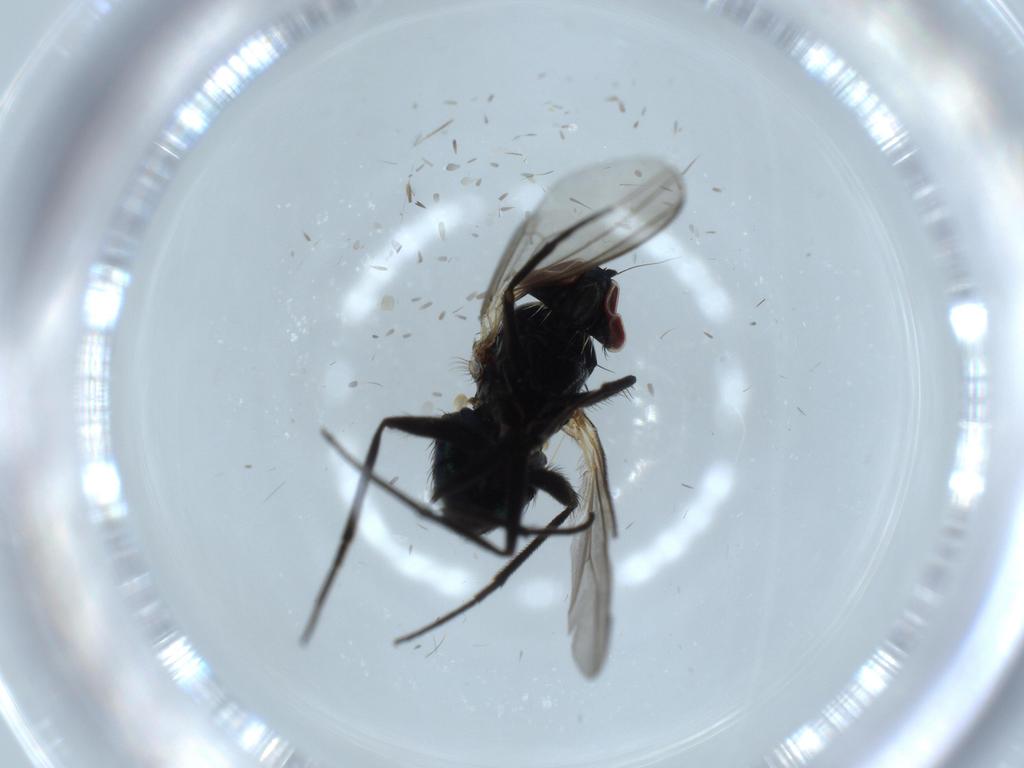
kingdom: Animalia
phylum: Arthropoda
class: Insecta
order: Diptera
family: Dolichopodidae
